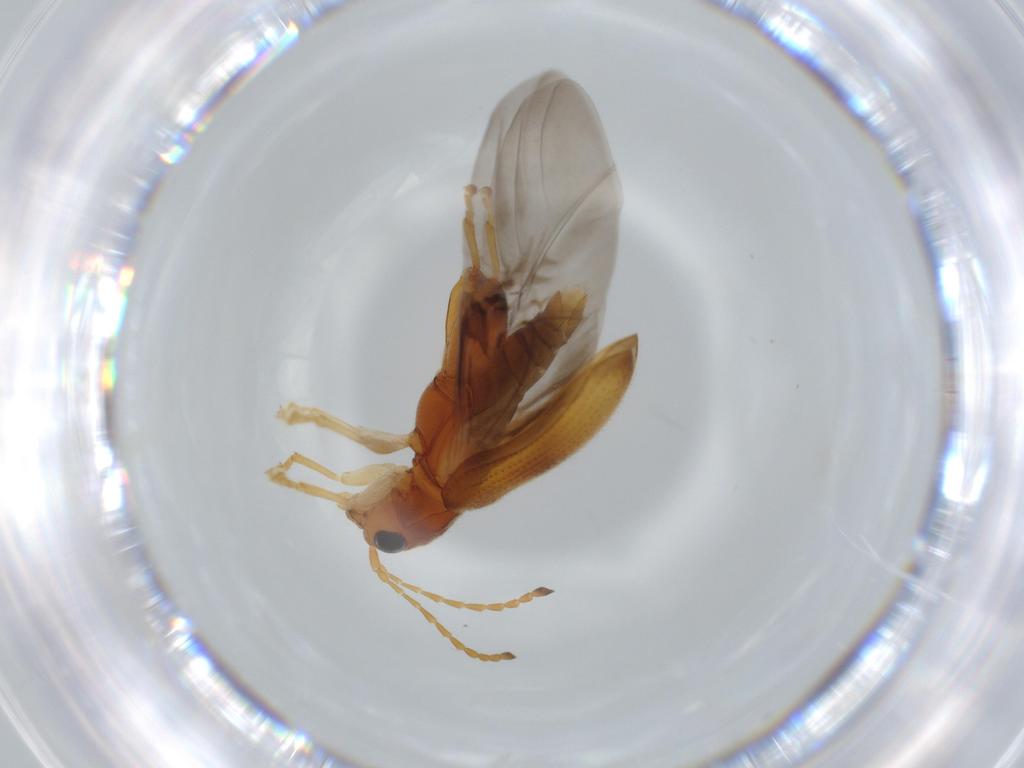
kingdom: Animalia
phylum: Arthropoda
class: Insecta
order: Coleoptera
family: Chrysomelidae
